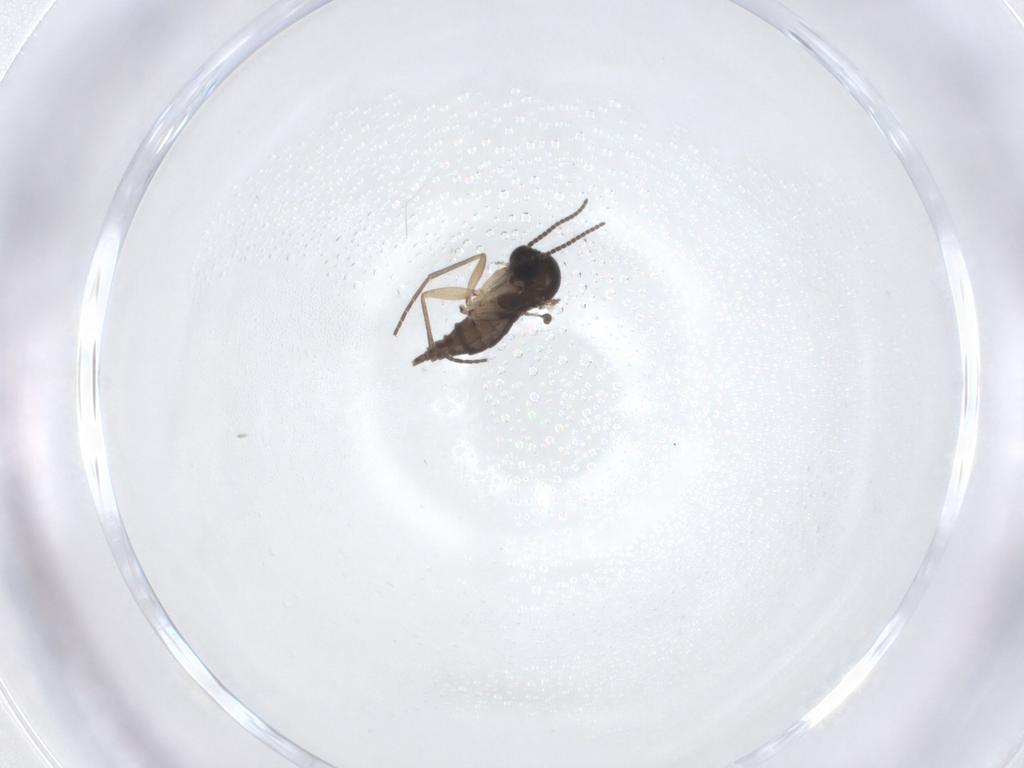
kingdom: Animalia
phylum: Arthropoda
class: Insecta
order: Diptera
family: Sciaridae
